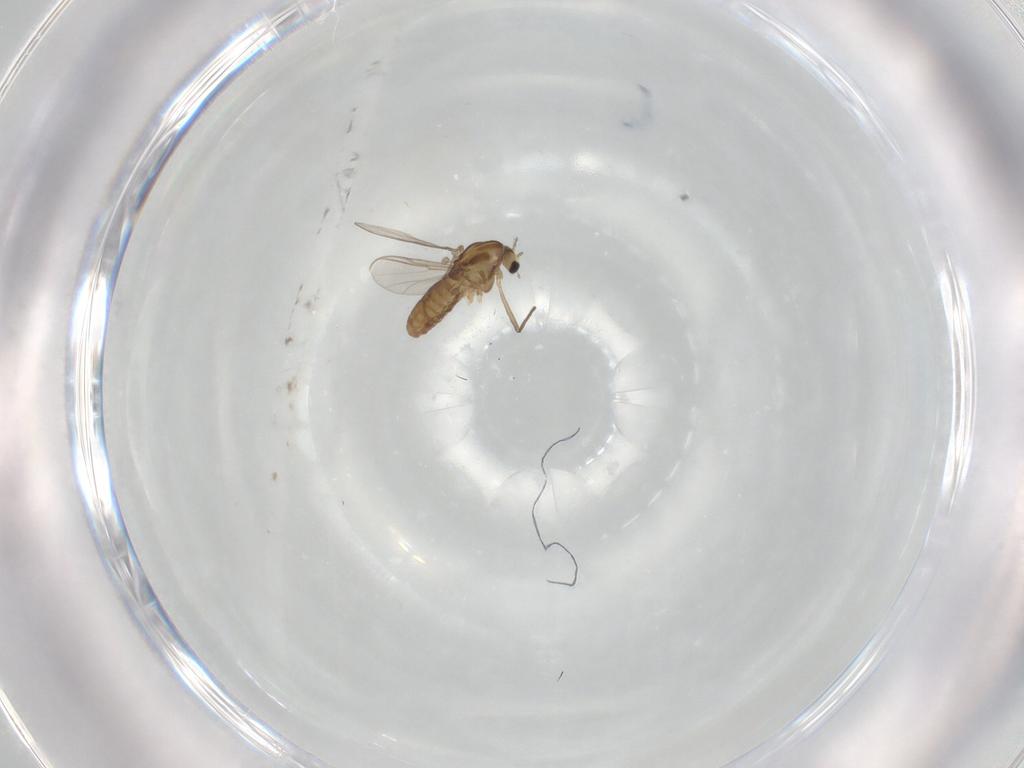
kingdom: Animalia
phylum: Arthropoda
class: Insecta
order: Diptera
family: Chironomidae
